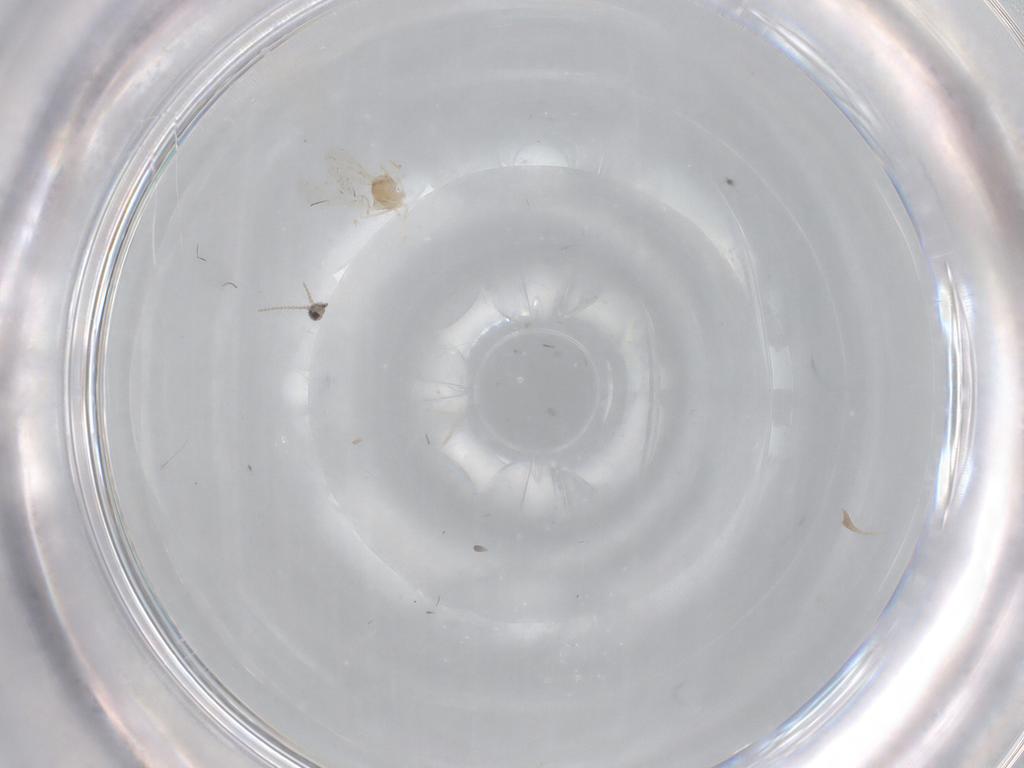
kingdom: Animalia
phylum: Arthropoda
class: Insecta
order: Diptera
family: Cecidomyiidae
